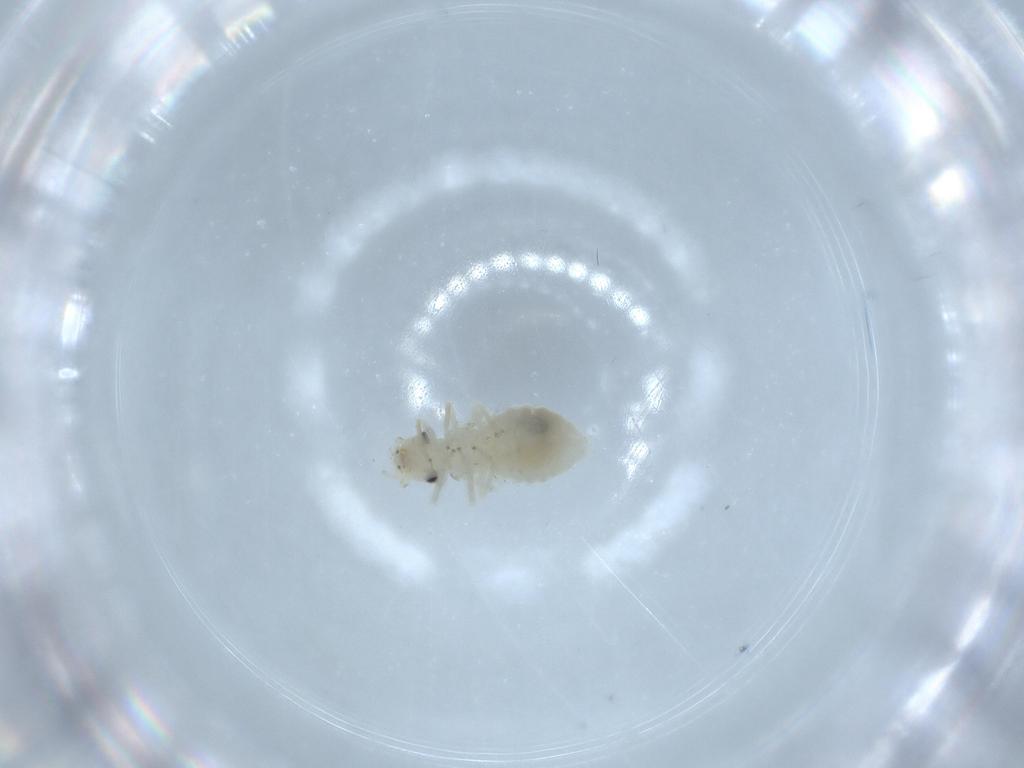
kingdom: Animalia
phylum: Arthropoda
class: Insecta
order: Psocodea
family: Caeciliusidae
